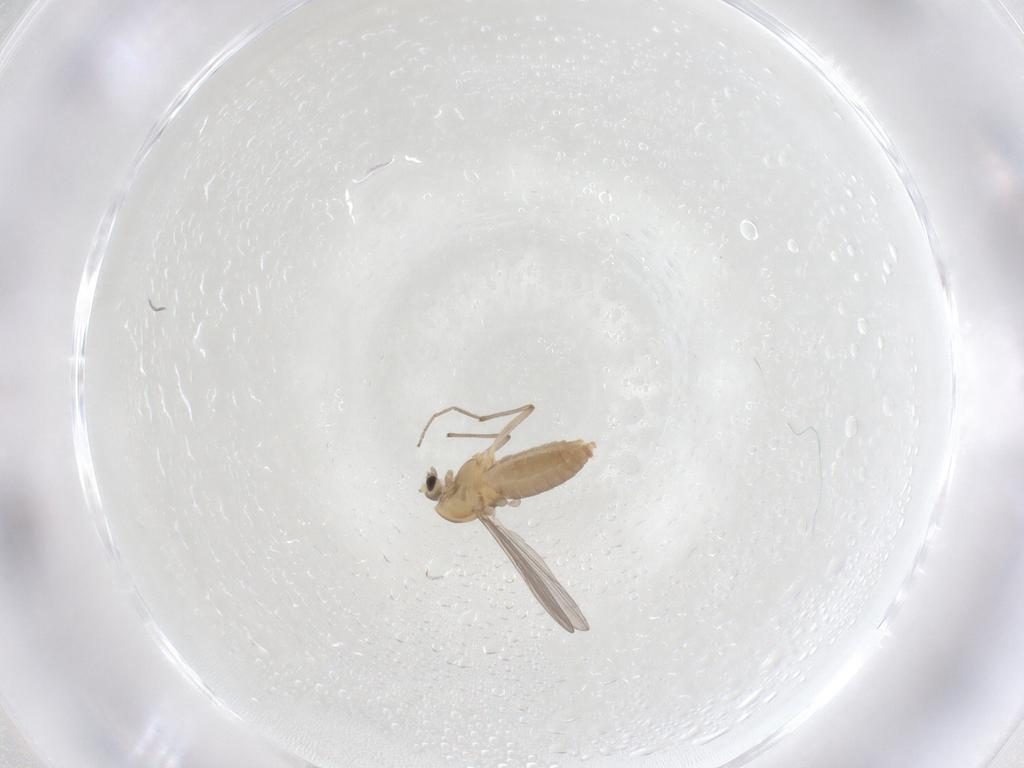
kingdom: Animalia
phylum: Arthropoda
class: Insecta
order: Diptera
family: Chironomidae
